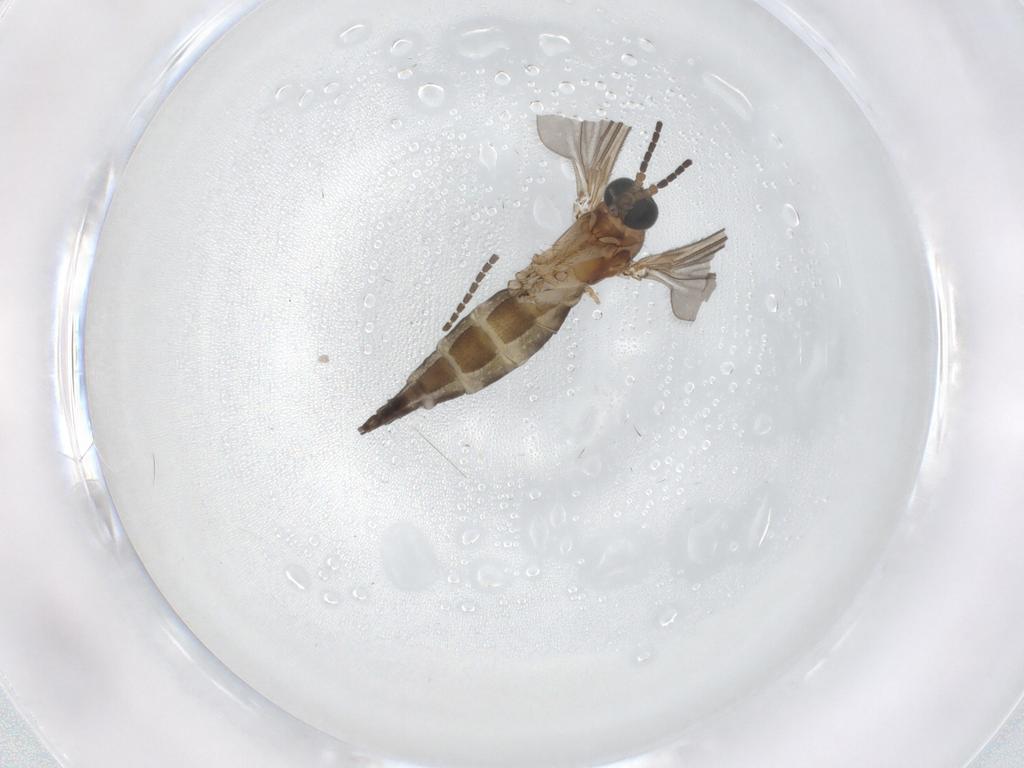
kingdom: Animalia
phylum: Arthropoda
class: Insecta
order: Diptera
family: Sciaridae
